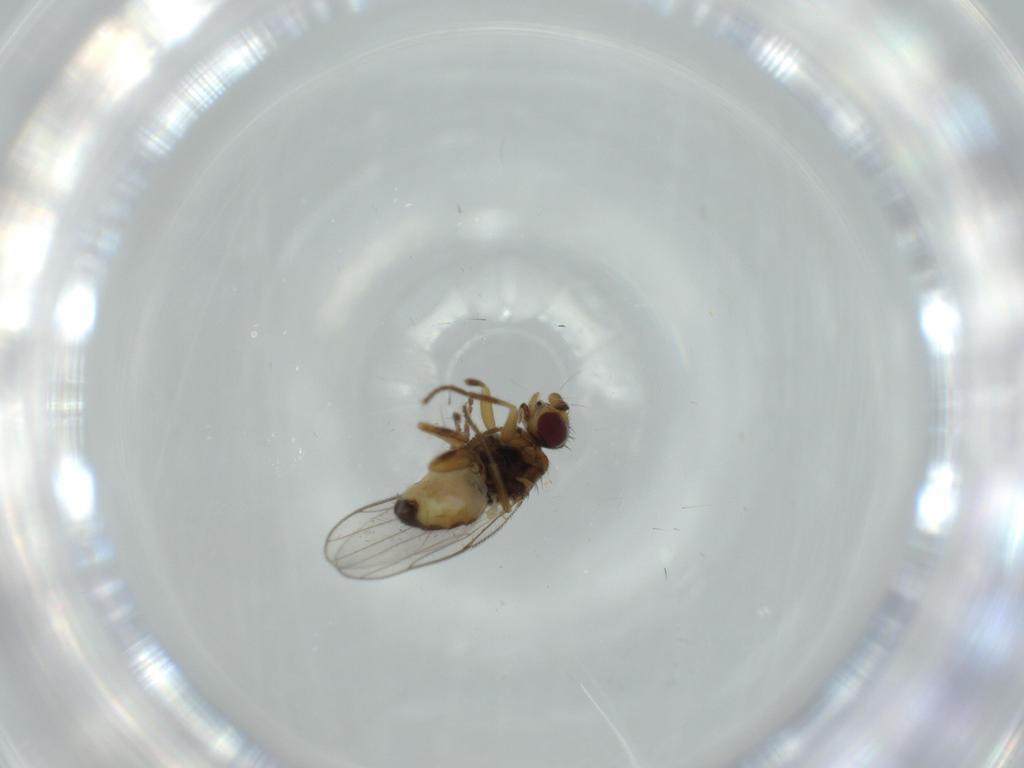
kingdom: Animalia
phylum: Arthropoda
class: Insecta
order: Diptera
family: Chloropidae
